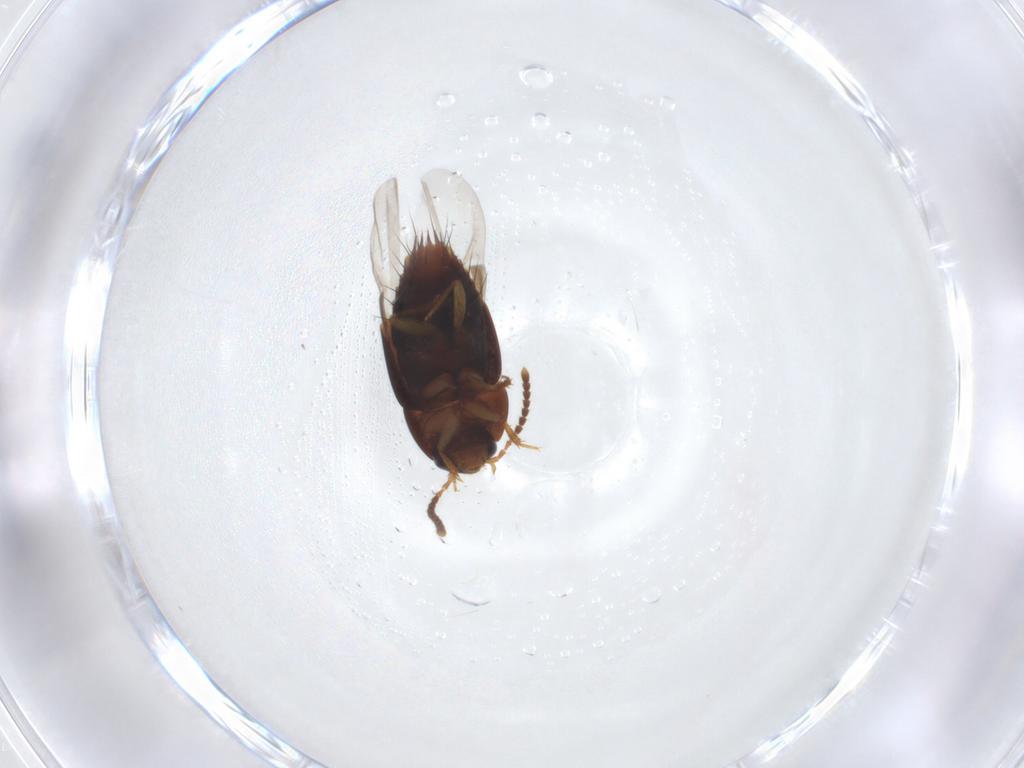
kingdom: Animalia
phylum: Arthropoda
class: Insecta
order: Coleoptera
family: Staphylinidae
